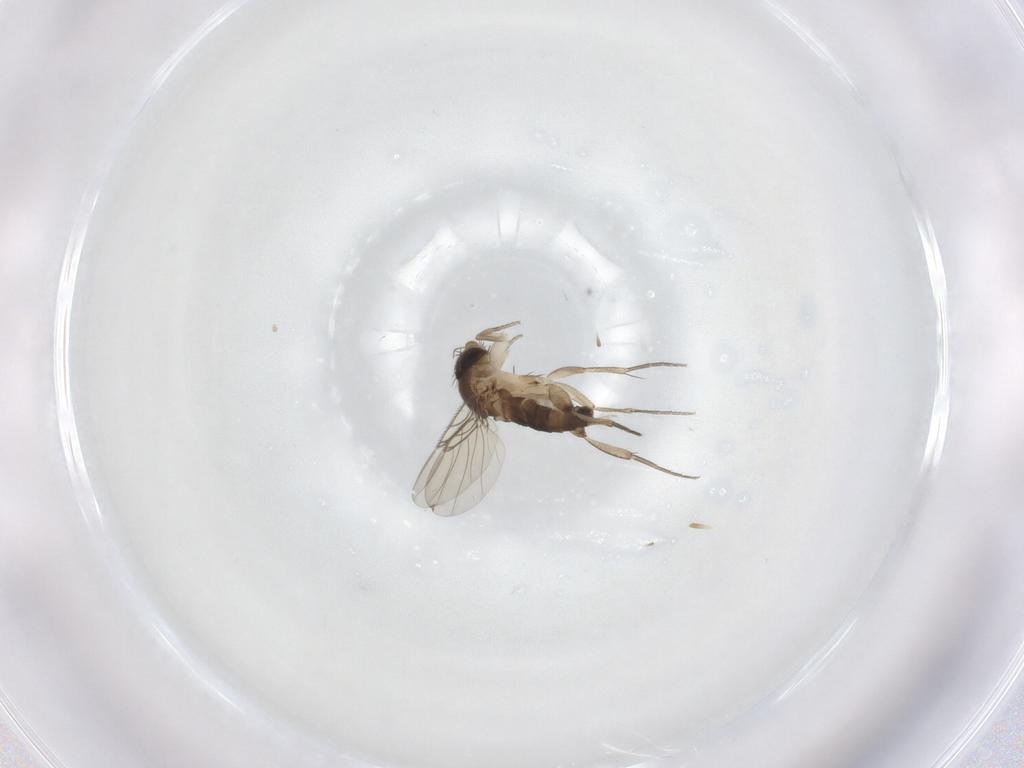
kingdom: Animalia
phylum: Arthropoda
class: Insecta
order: Diptera
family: Phoridae
